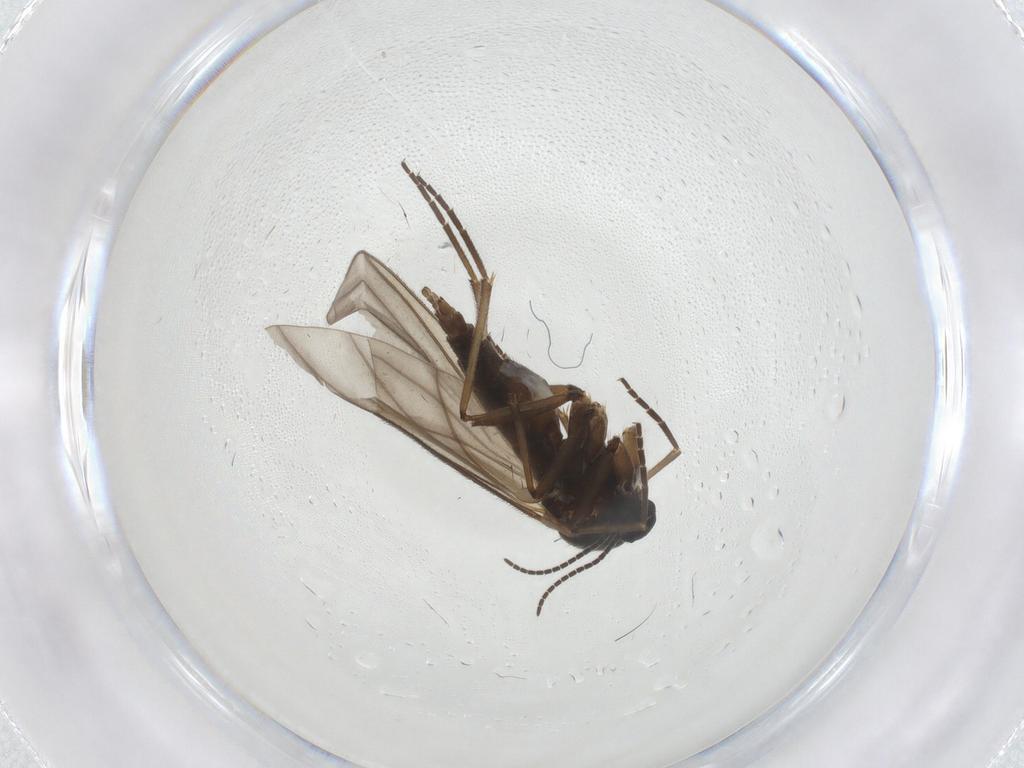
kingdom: Animalia
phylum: Arthropoda
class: Insecta
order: Diptera
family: Sciaridae
